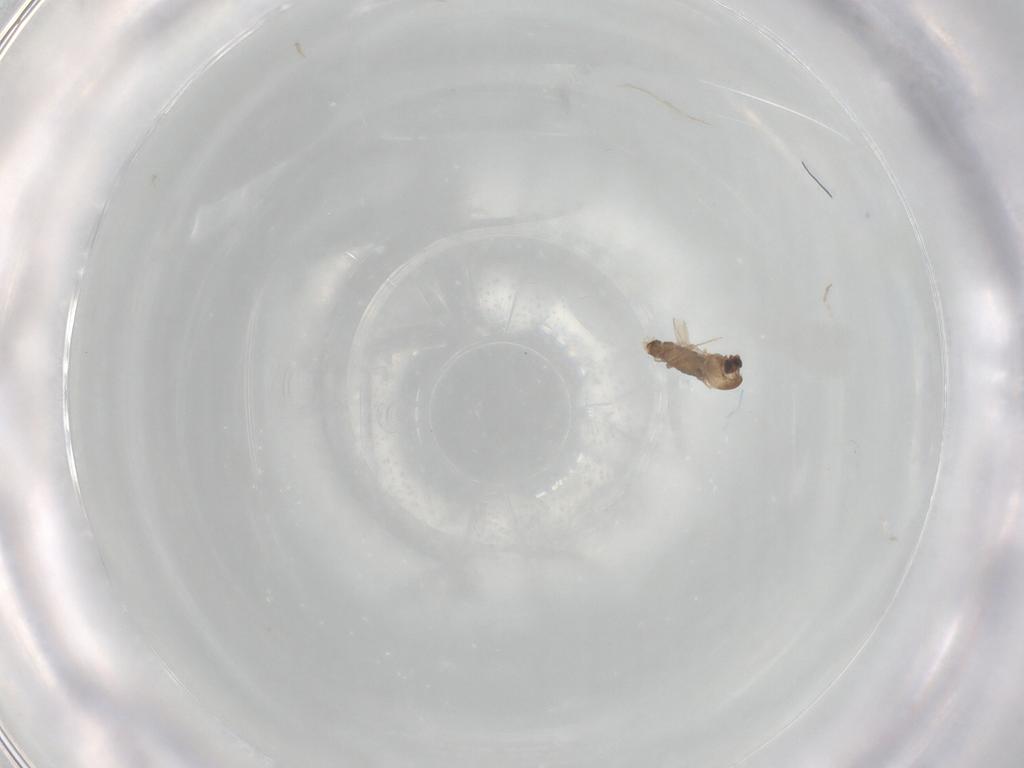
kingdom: Animalia
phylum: Arthropoda
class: Insecta
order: Diptera
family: Chironomidae
